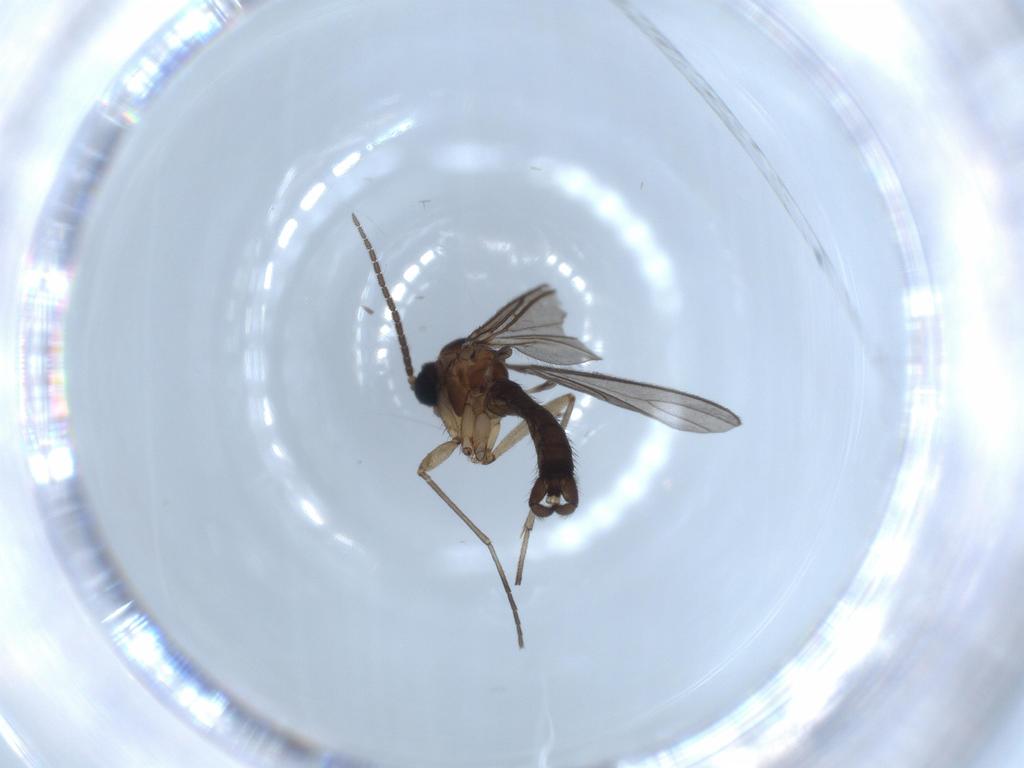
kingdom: Animalia
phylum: Arthropoda
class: Insecta
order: Diptera
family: Sciaridae
